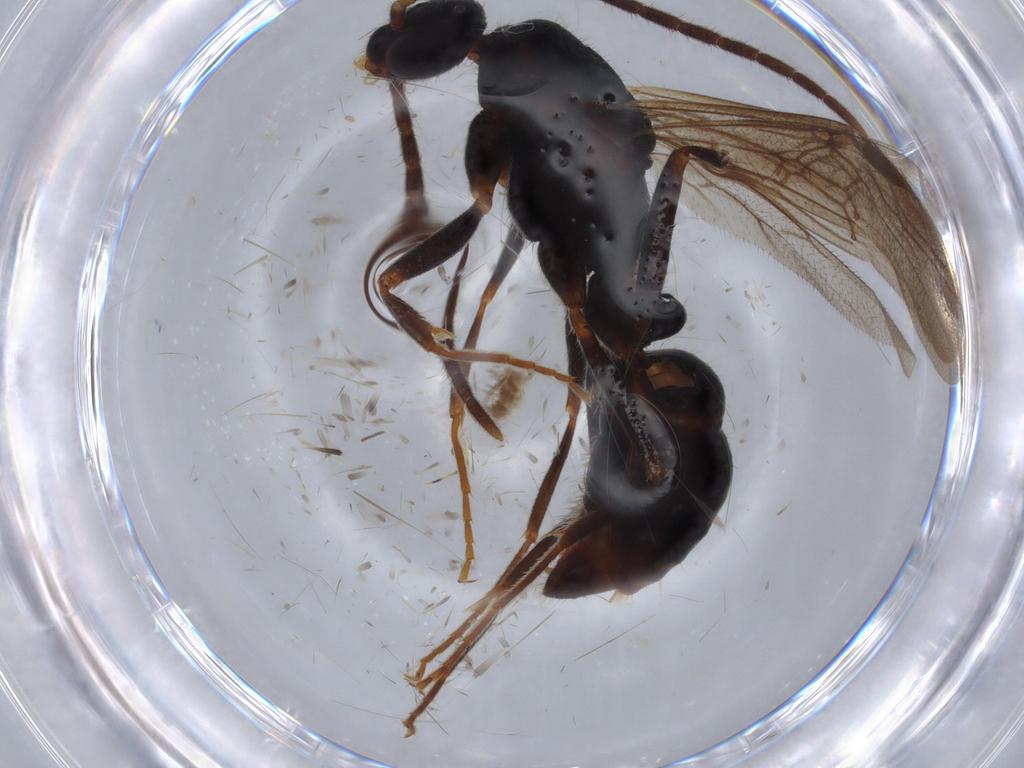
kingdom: Animalia
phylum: Arthropoda
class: Insecta
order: Hymenoptera
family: Formicidae
